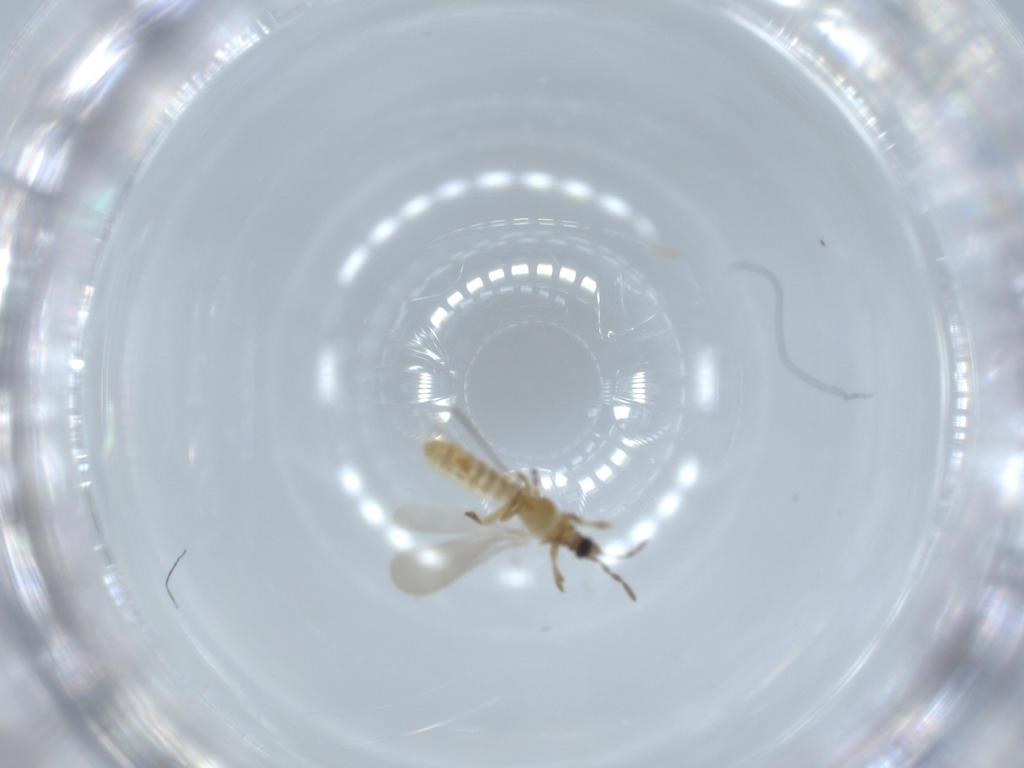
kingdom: Animalia
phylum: Arthropoda
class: Insecta
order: Hemiptera
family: Enicocephalidae
